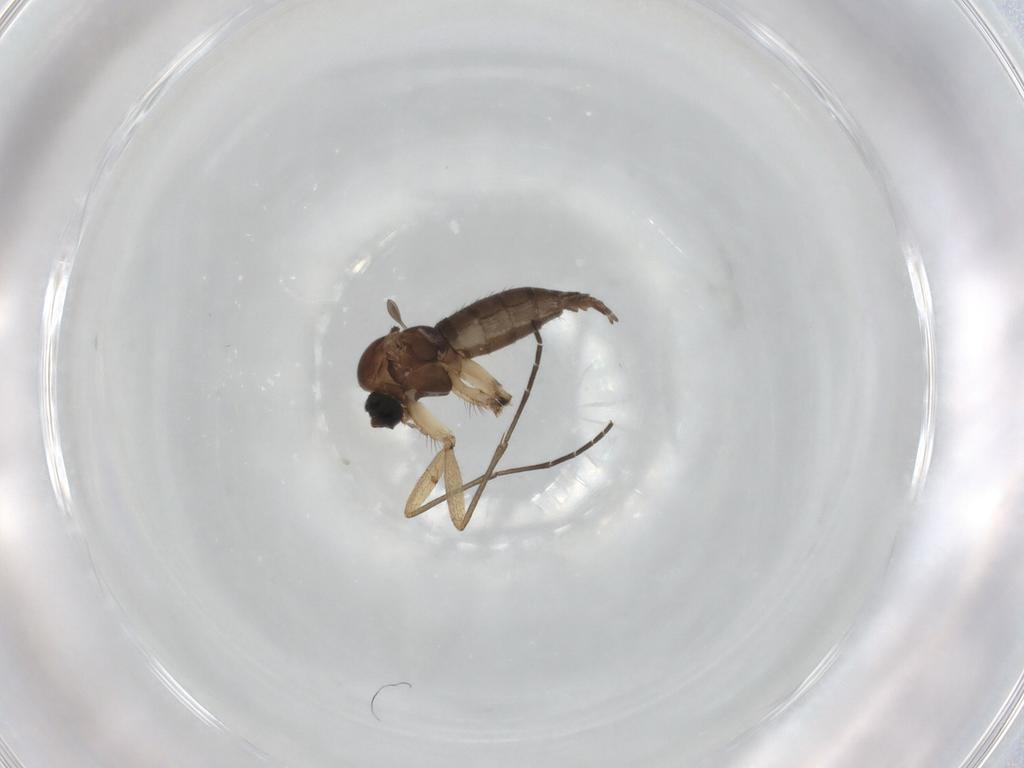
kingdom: Animalia
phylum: Arthropoda
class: Insecta
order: Diptera
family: Sciaridae
